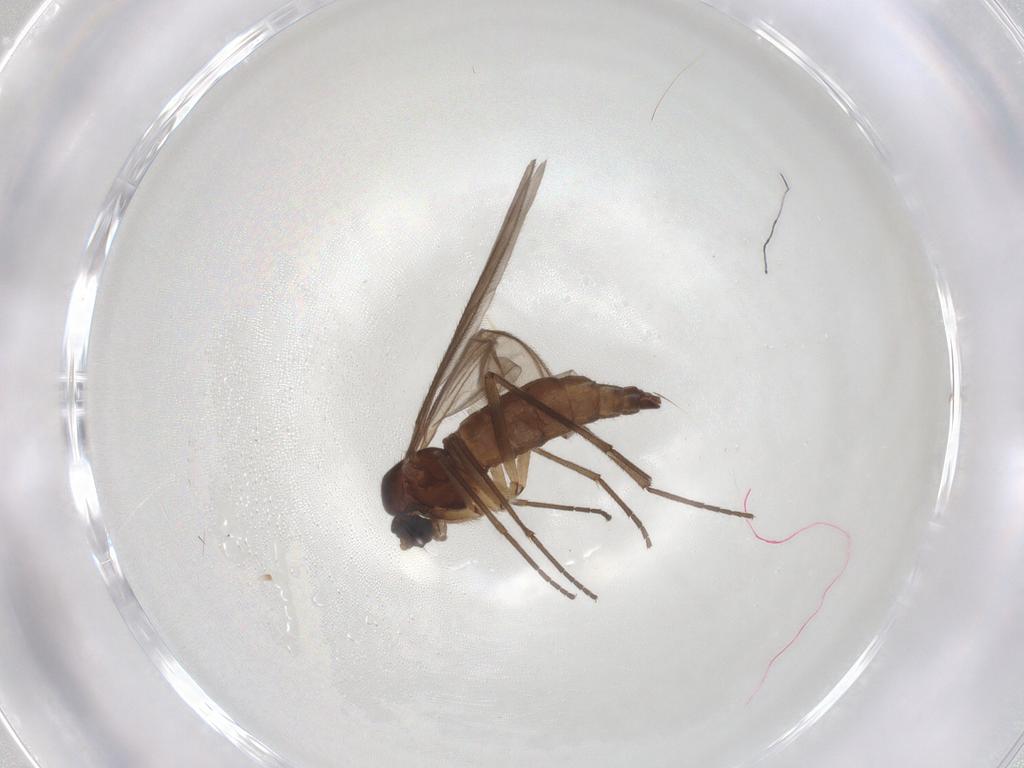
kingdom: Animalia
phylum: Arthropoda
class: Insecta
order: Diptera
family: Sciaridae
